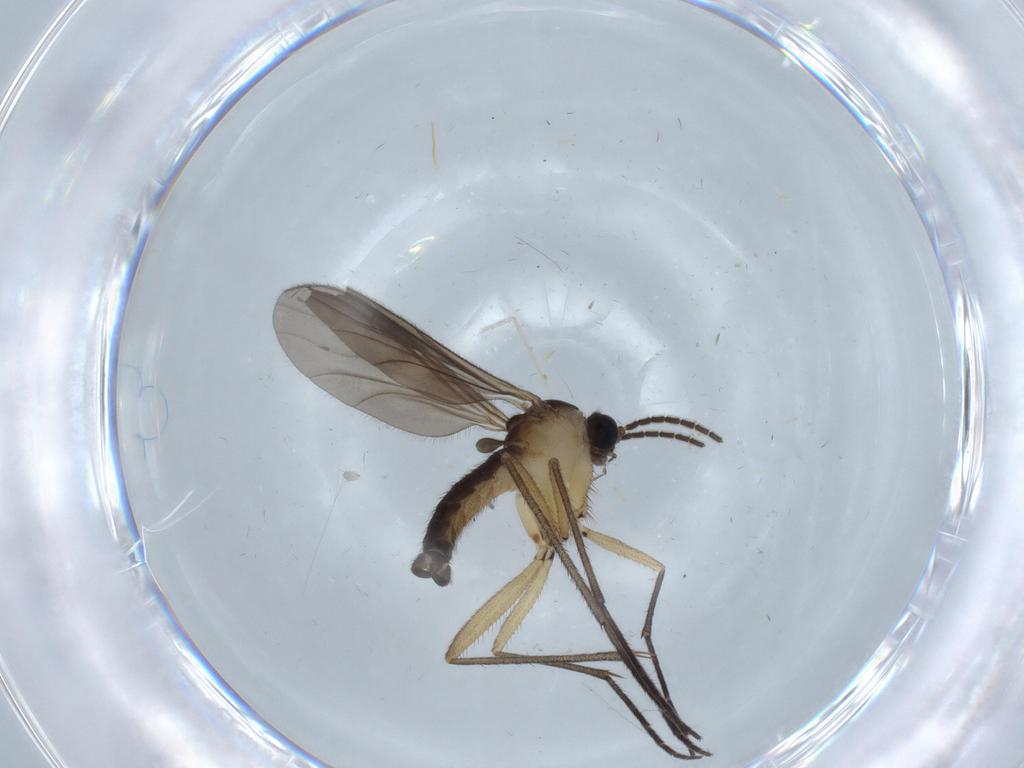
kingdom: Animalia
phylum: Arthropoda
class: Insecta
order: Diptera
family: Sciaridae
